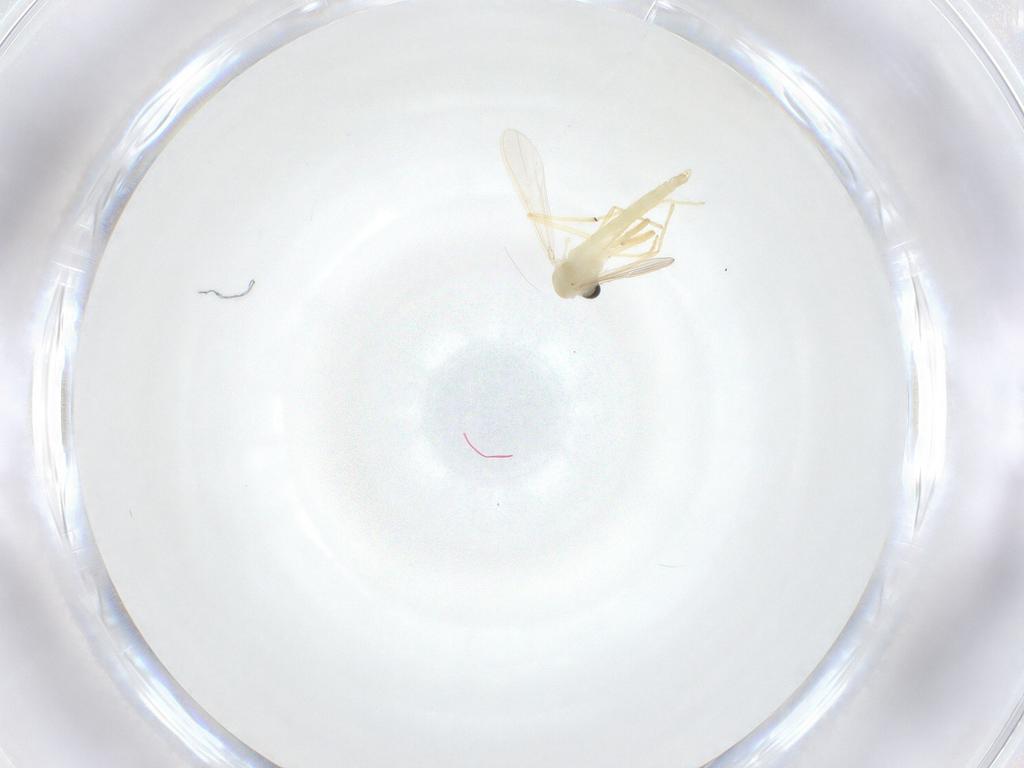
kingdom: Animalia
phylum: Arthropoda
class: Insecta
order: Diptera
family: Chironomidae
